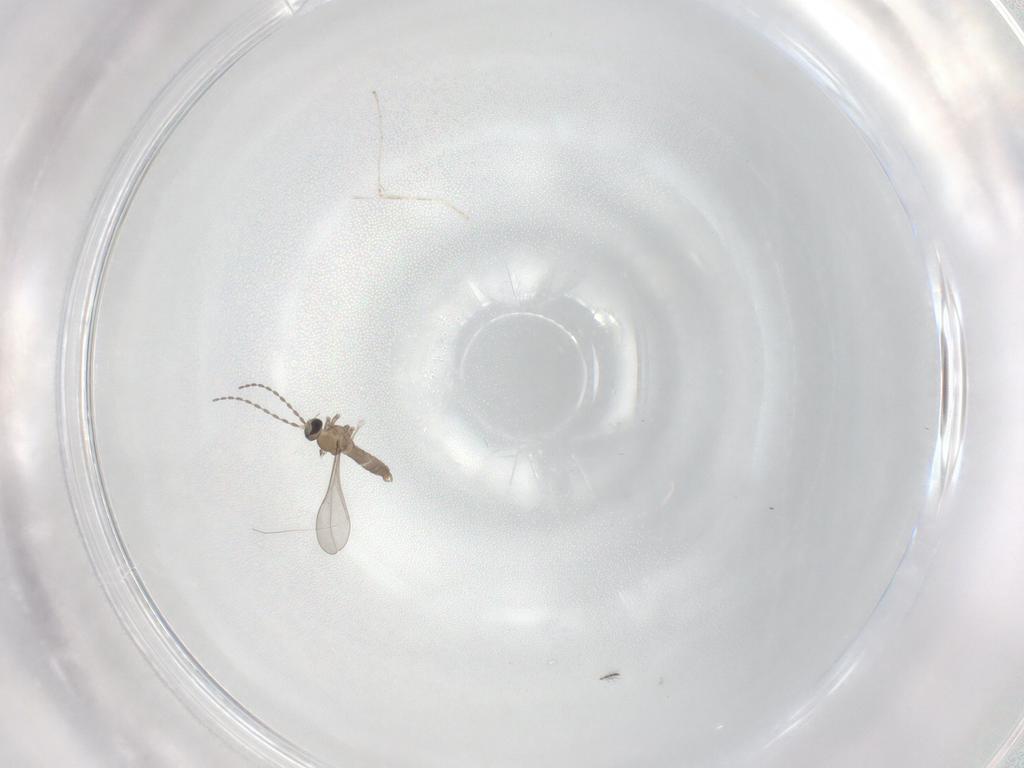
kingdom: Animalia
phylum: Arthropoda
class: Insecta
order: Diptera
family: Cecidomyiidae
